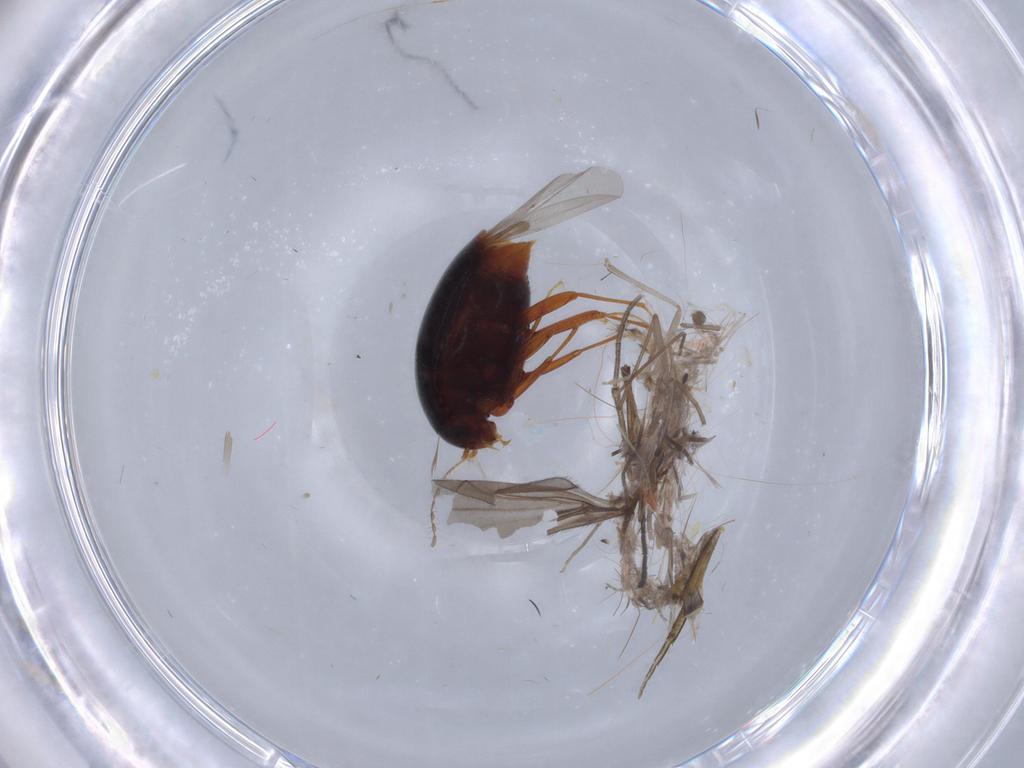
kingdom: Animalia
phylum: Arthropoda
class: Insecta
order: Coleoptera
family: Staphylinidae
